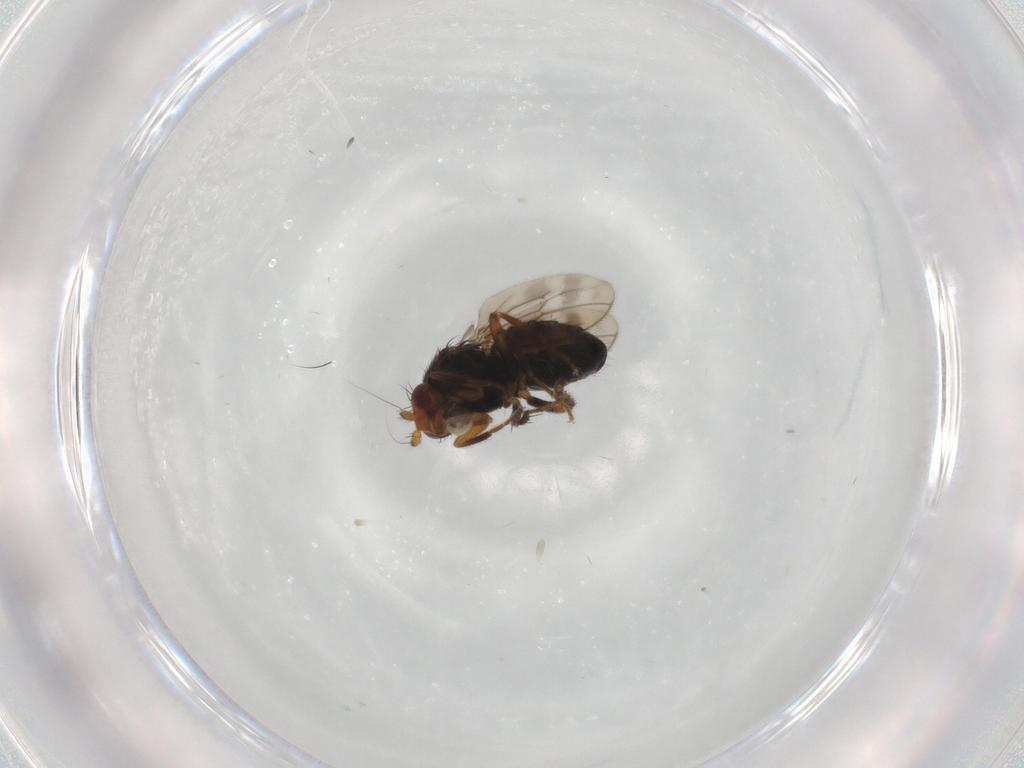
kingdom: Animalia
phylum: Arthropoda
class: Insecta
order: Diptera
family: Sphaeroceridae
